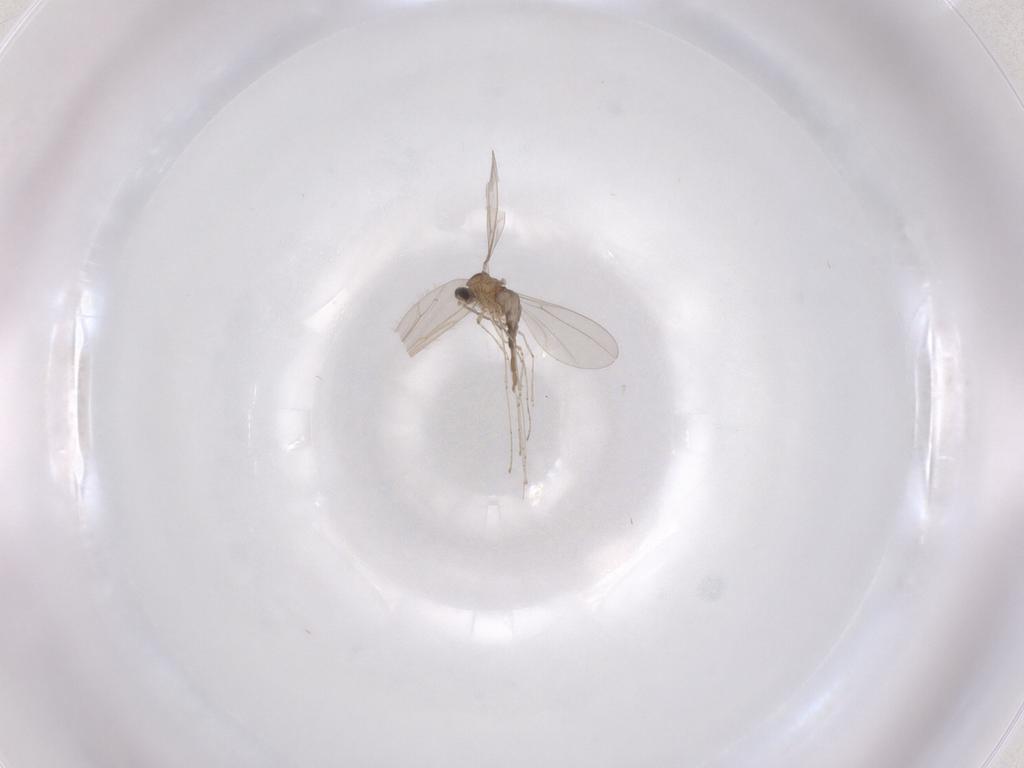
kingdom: Animalia
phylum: Arthropoda
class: Insecta
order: Diptera
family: Cecidomyiidae
